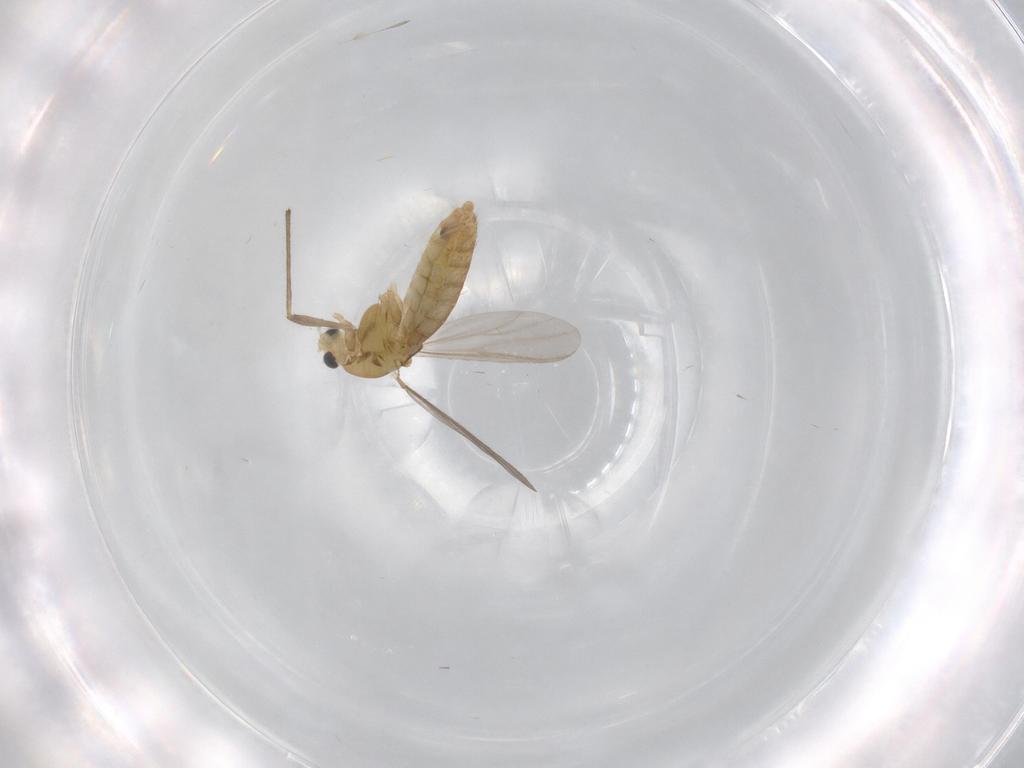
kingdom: Animalia
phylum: Arthropoda
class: Insecta
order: Diptera
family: Chironomidae
